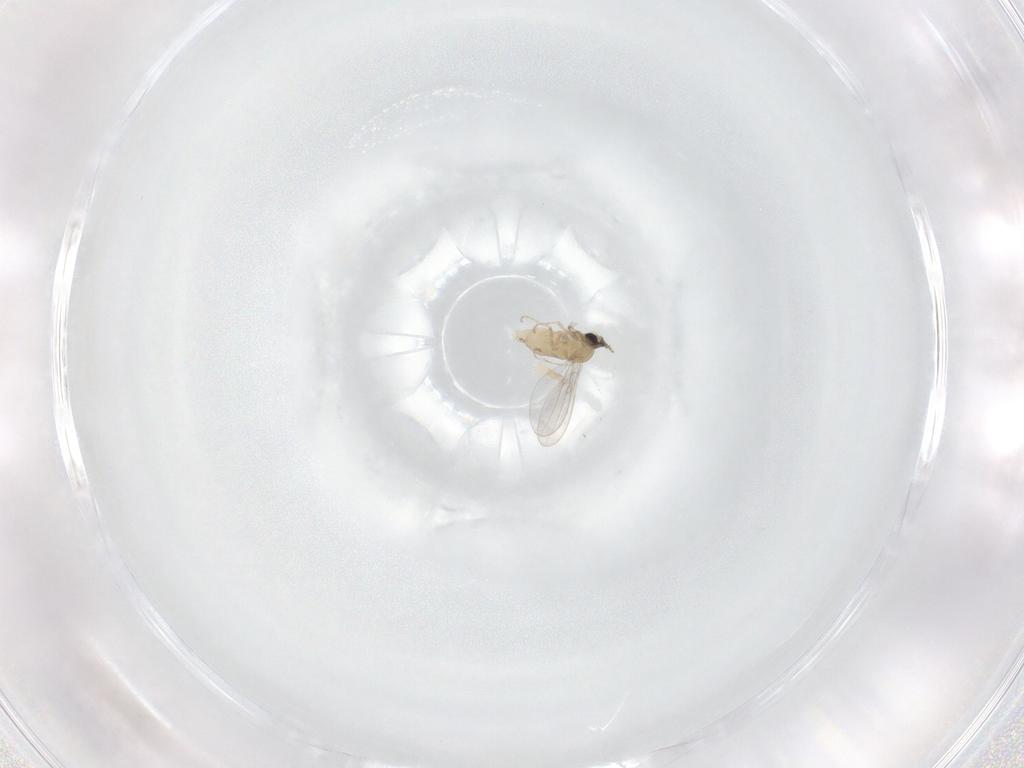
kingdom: Animalia
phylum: Arthropoda
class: Insecta
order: Diptera
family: Cecidomyiidae
